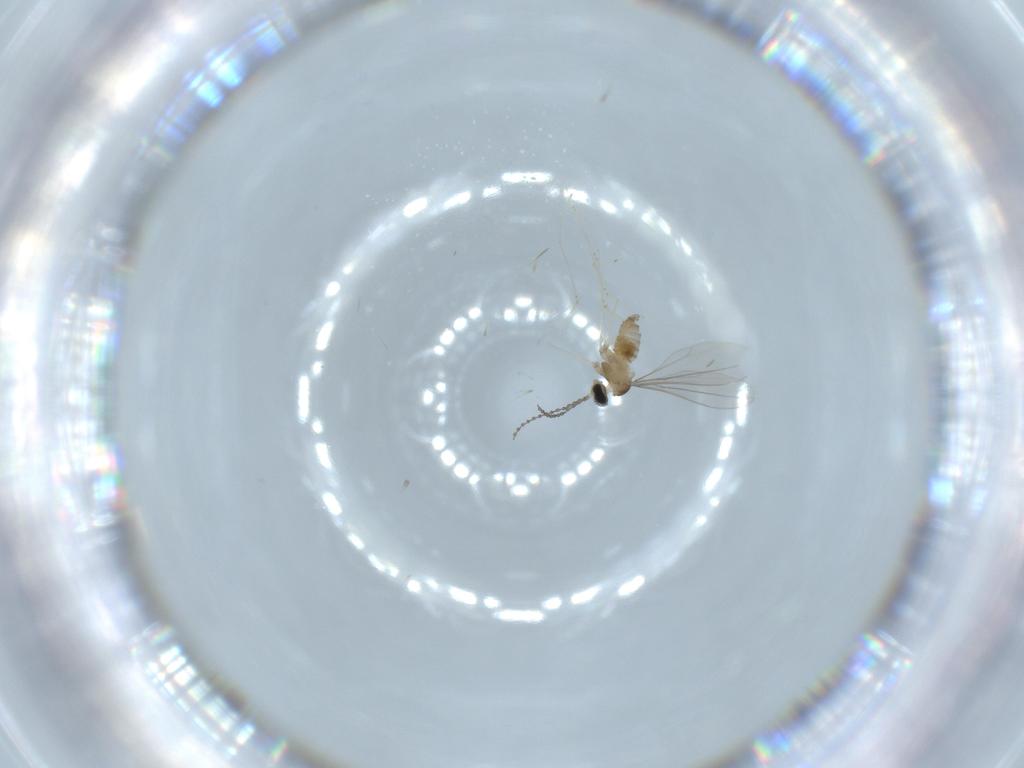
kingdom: Animalia
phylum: Arthropoda
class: Insecta
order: Diptera
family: Cecidomyiidae
